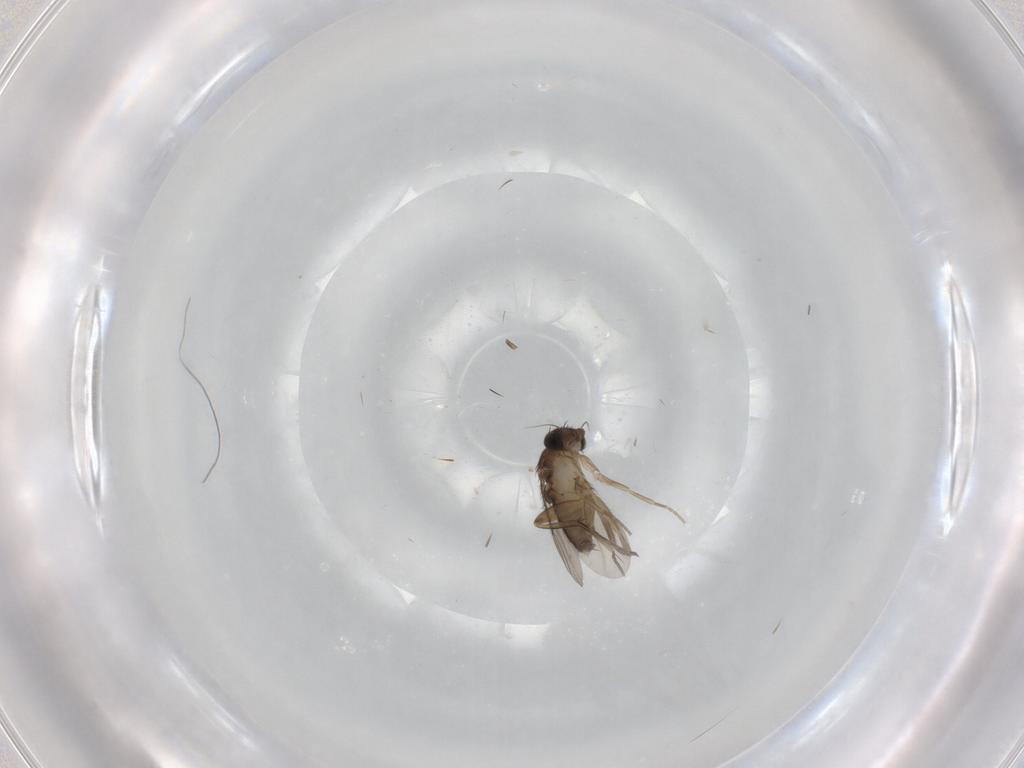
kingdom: Animalia
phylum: Arthropoda
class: Insecta
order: Diptera
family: Phoridae
